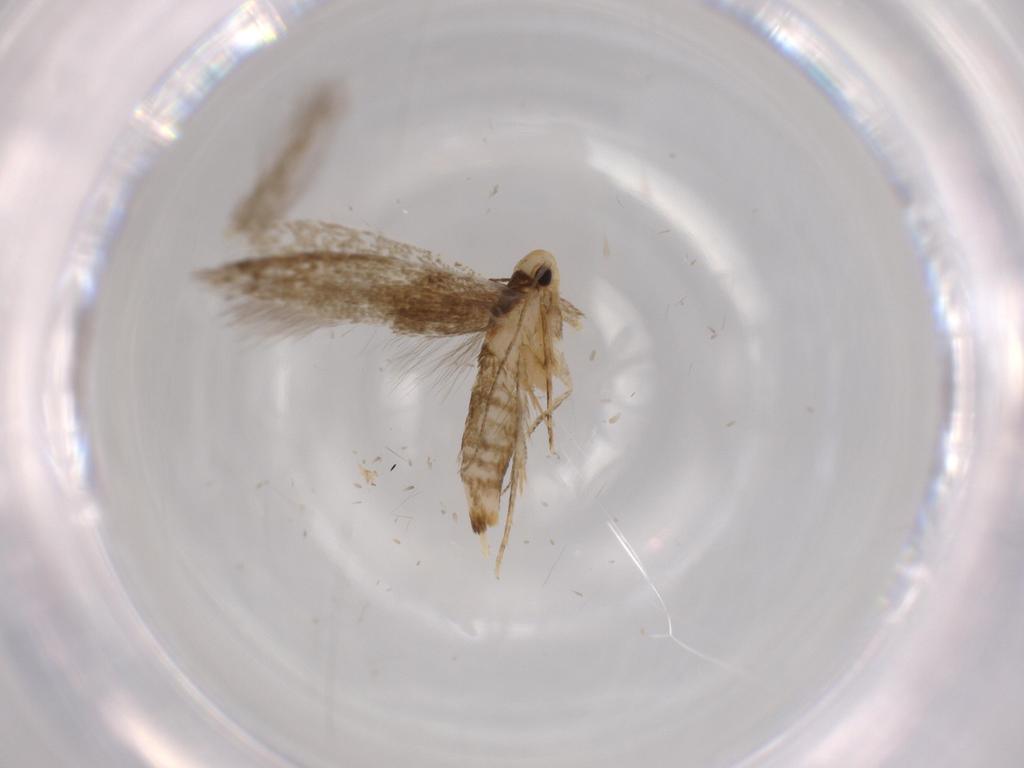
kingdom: Animalia
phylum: Arthropoda
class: Insecta
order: Lepidoptera
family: Tineidae
